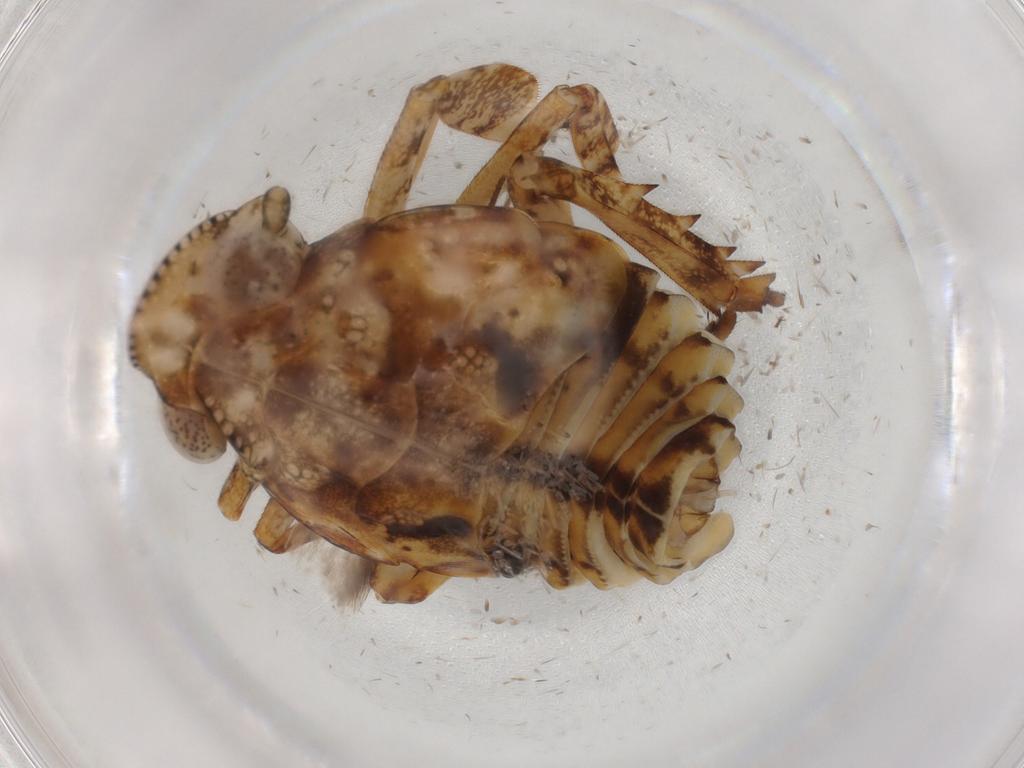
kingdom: Animalia
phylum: Arthropoda
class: Insecta
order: Hemiptera
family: Eurybrachidae
